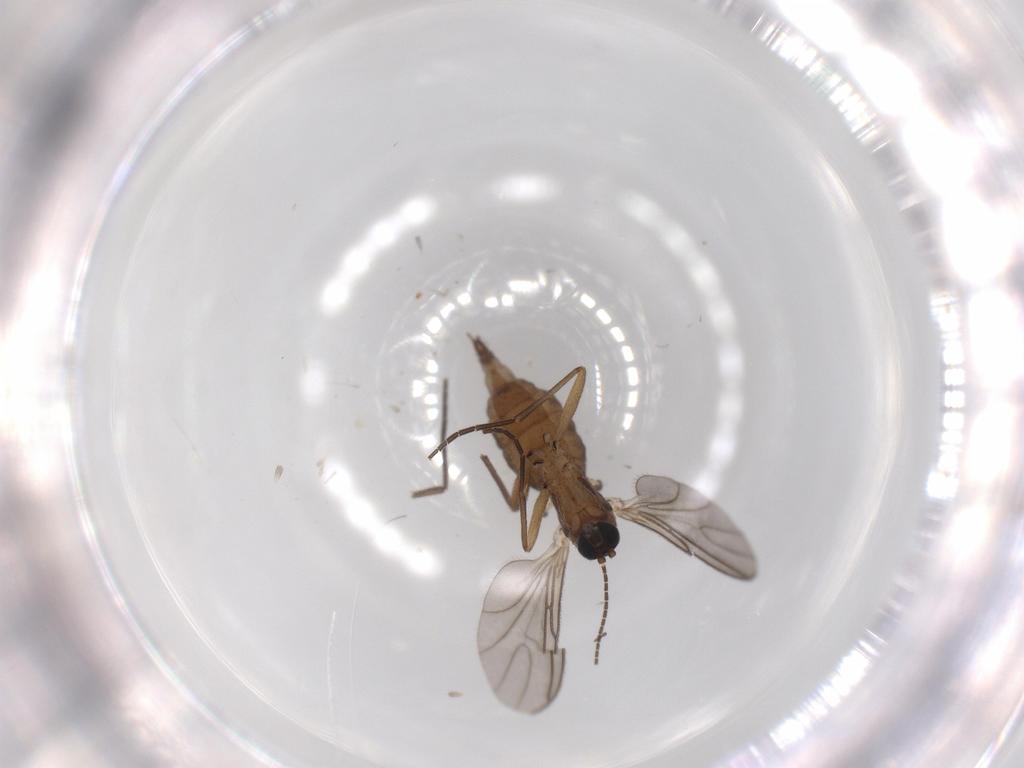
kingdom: Animalia
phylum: Arthropoda
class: Insecta
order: Diptera
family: Sciaridae
